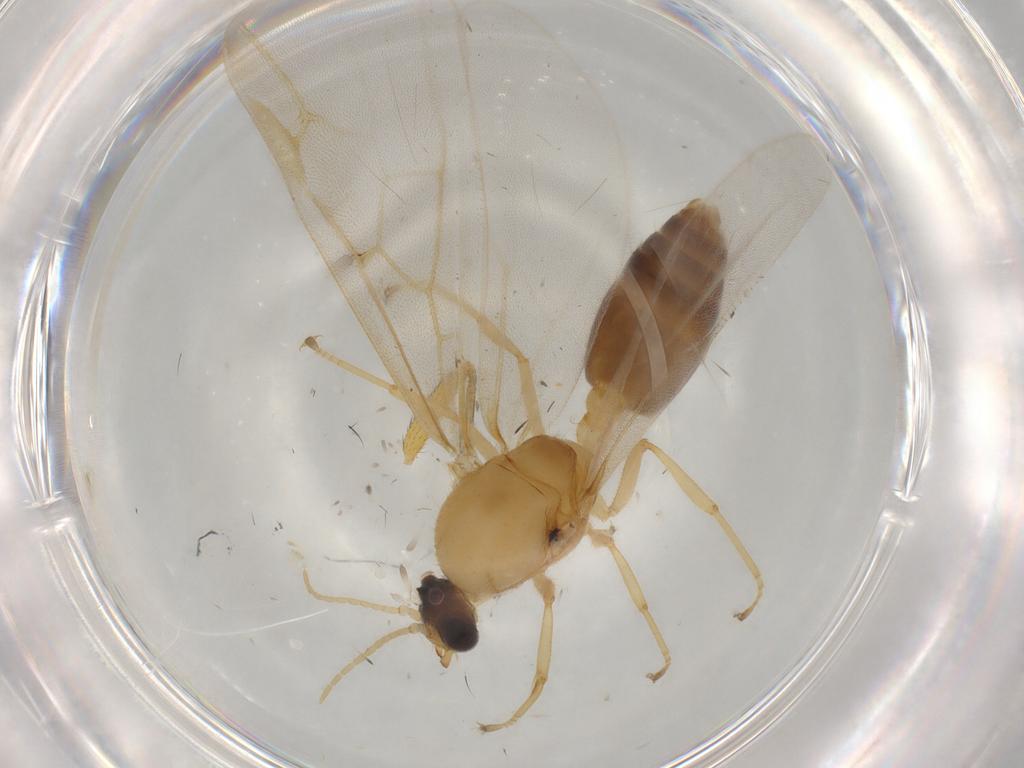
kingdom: Animalia
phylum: Arthropoda
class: Insecta
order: Hymenoptera
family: Formicidae
